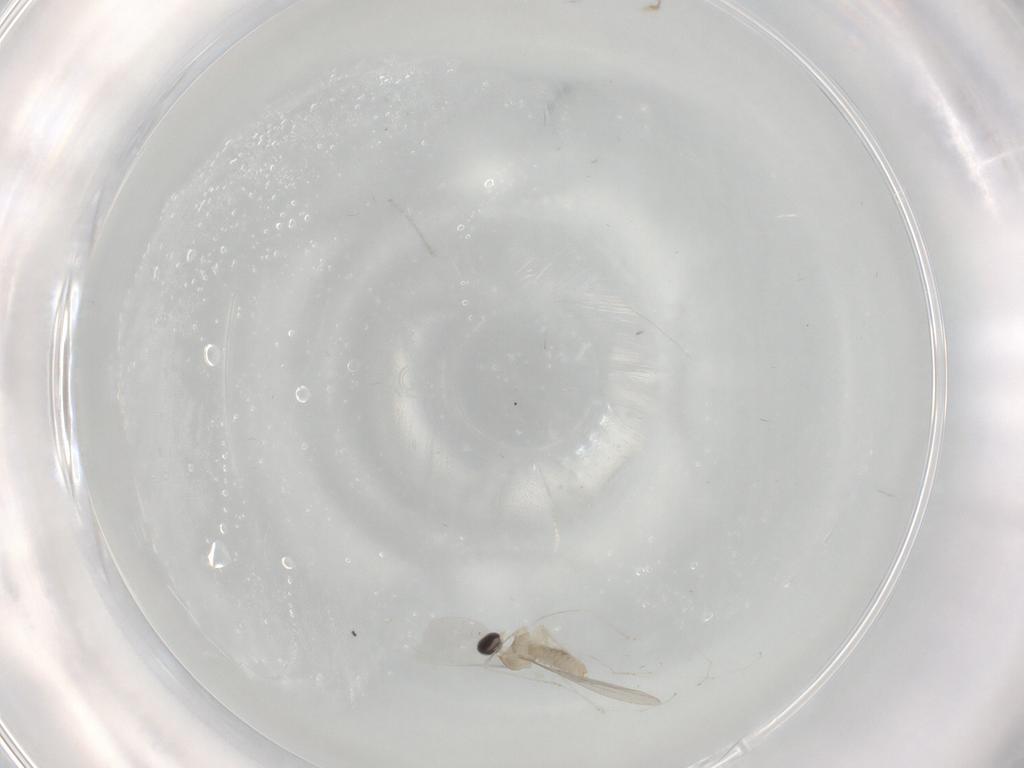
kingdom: Animalia
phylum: Arthropoda
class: Insecta
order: Diptera
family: Cecidomyiidae
